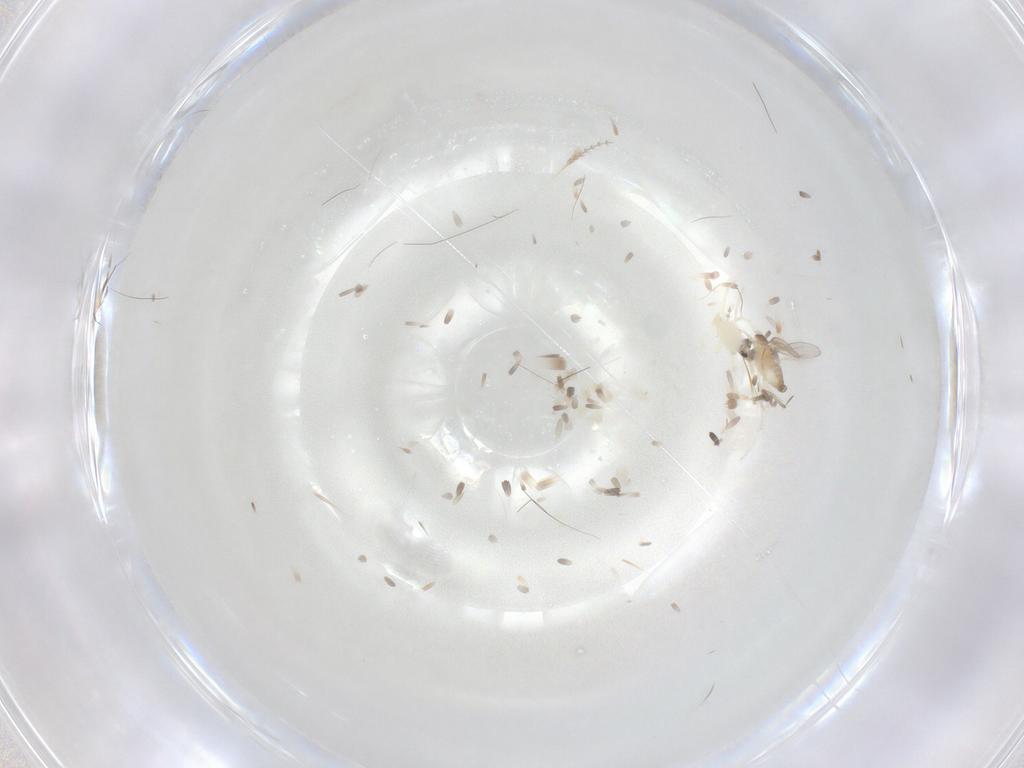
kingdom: Animalia
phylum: Arthropoda
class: Insecta
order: Diptera
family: Cecidomyiidae
